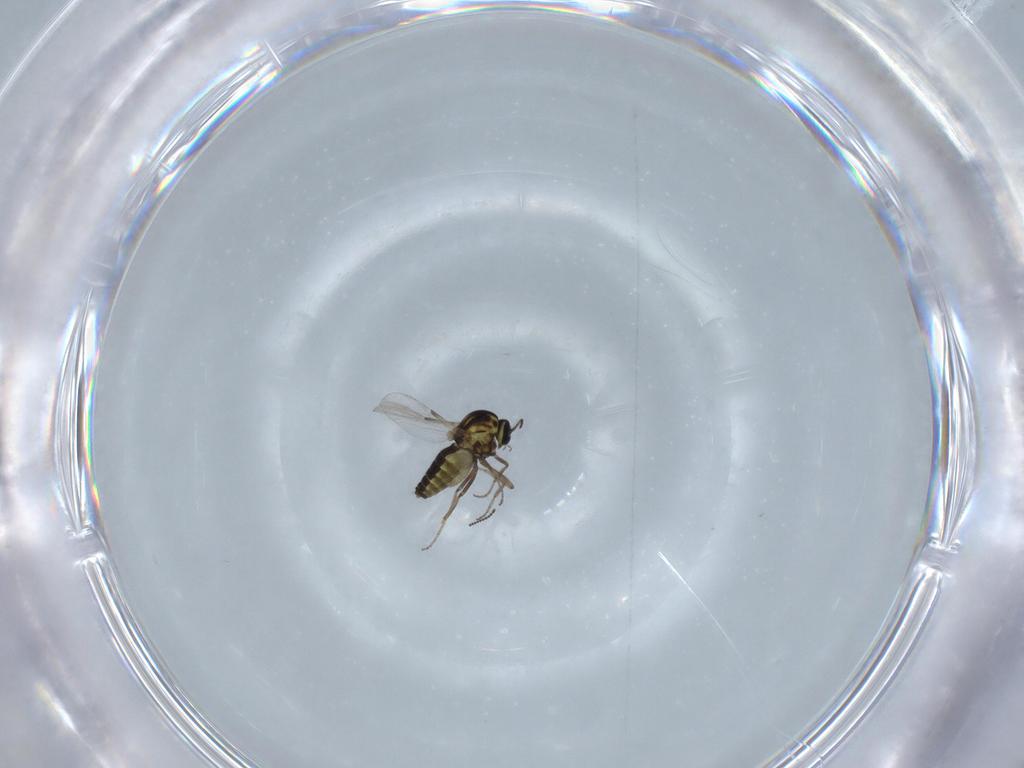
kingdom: Animalia
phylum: Arthropoda
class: Insecta
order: Diptera
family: Ceratopogonidae
